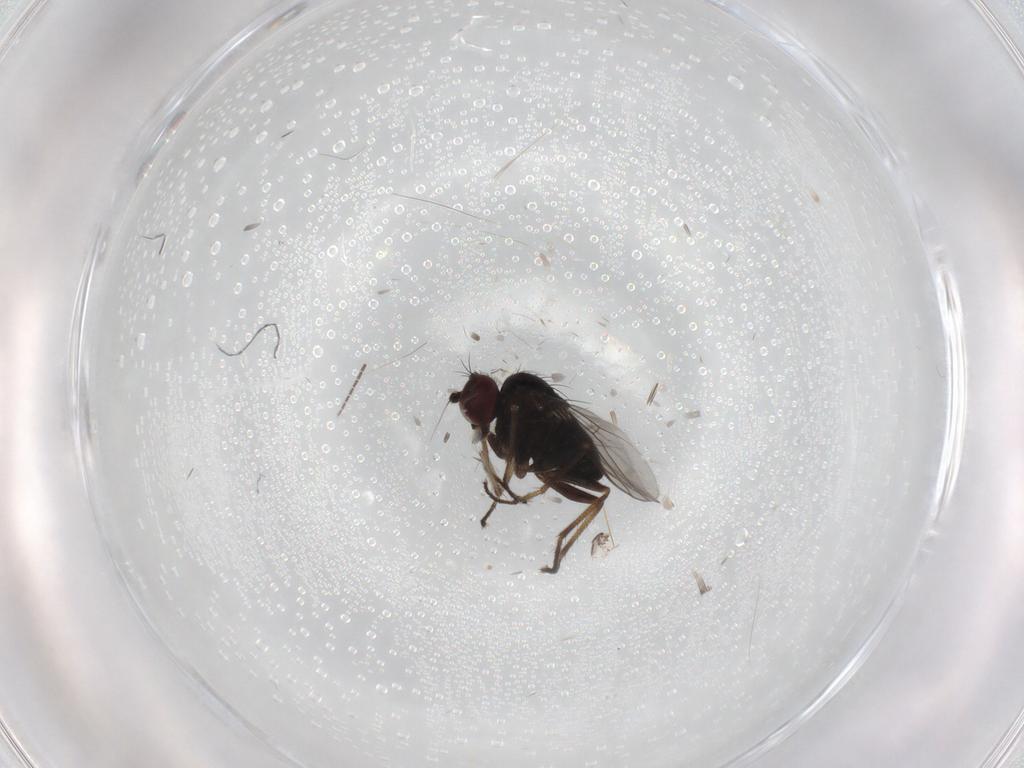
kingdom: Animalia
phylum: Arthropoda
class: Insecta
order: Diptera
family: Dolichopodidae
